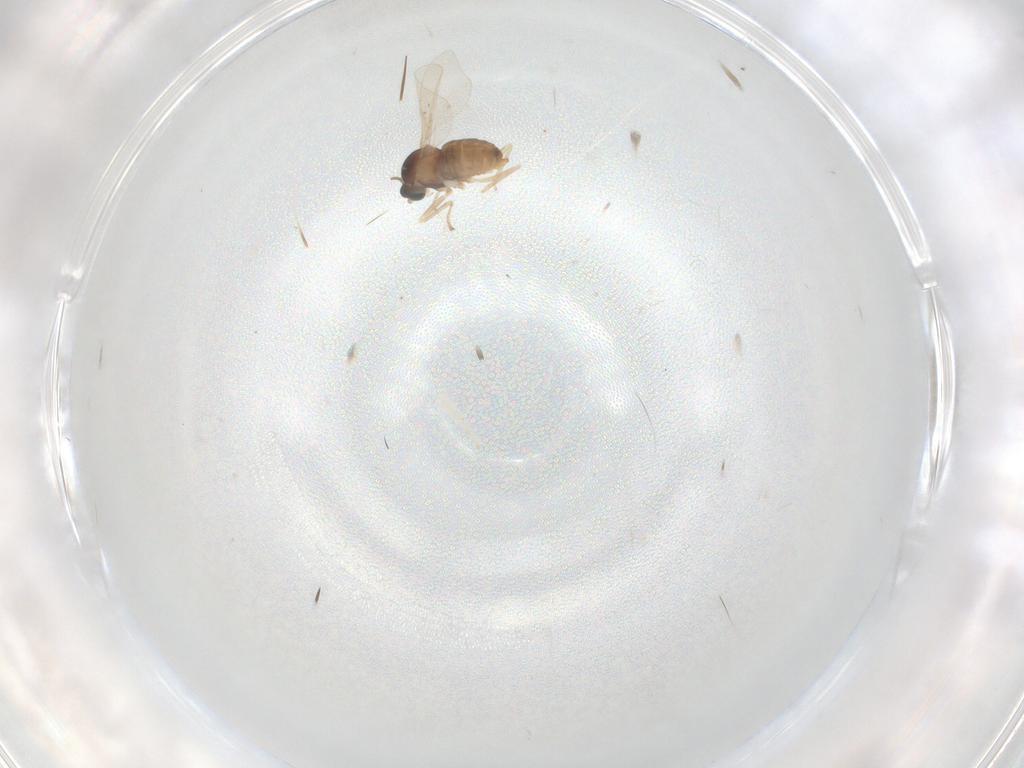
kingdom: Animalia
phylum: Arthropoda
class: Insecta
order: Diptera
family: Cecidomyiidae
